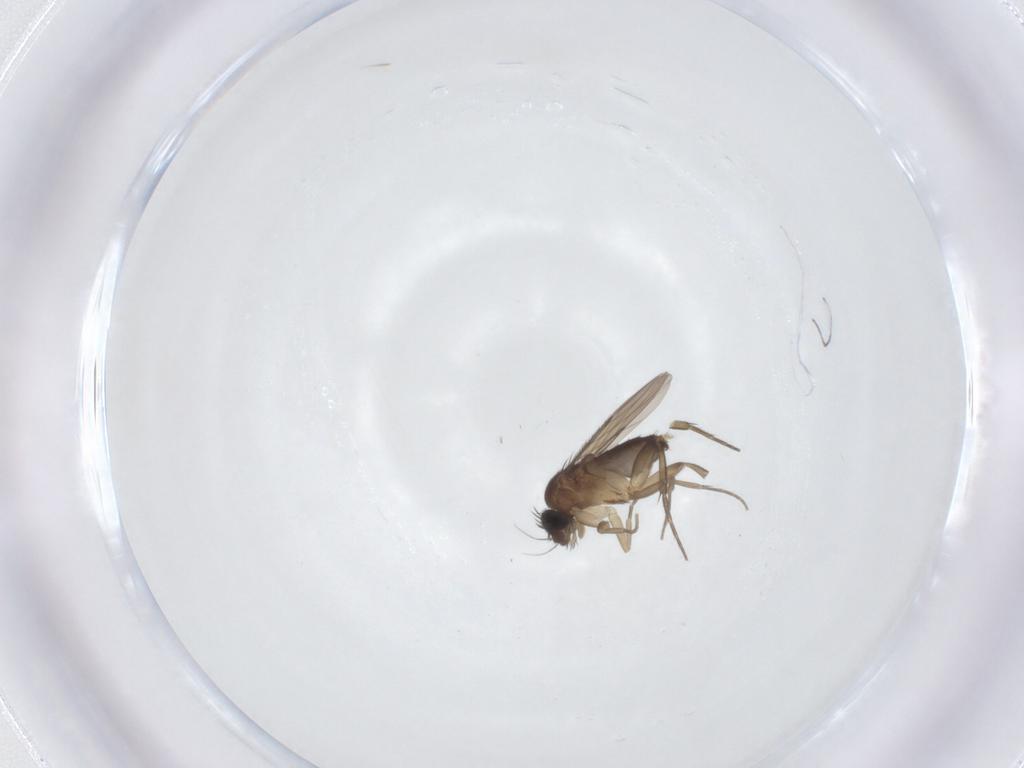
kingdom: Animalia
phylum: Arthropoda
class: Insecta
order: Diptera
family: Phoridae
